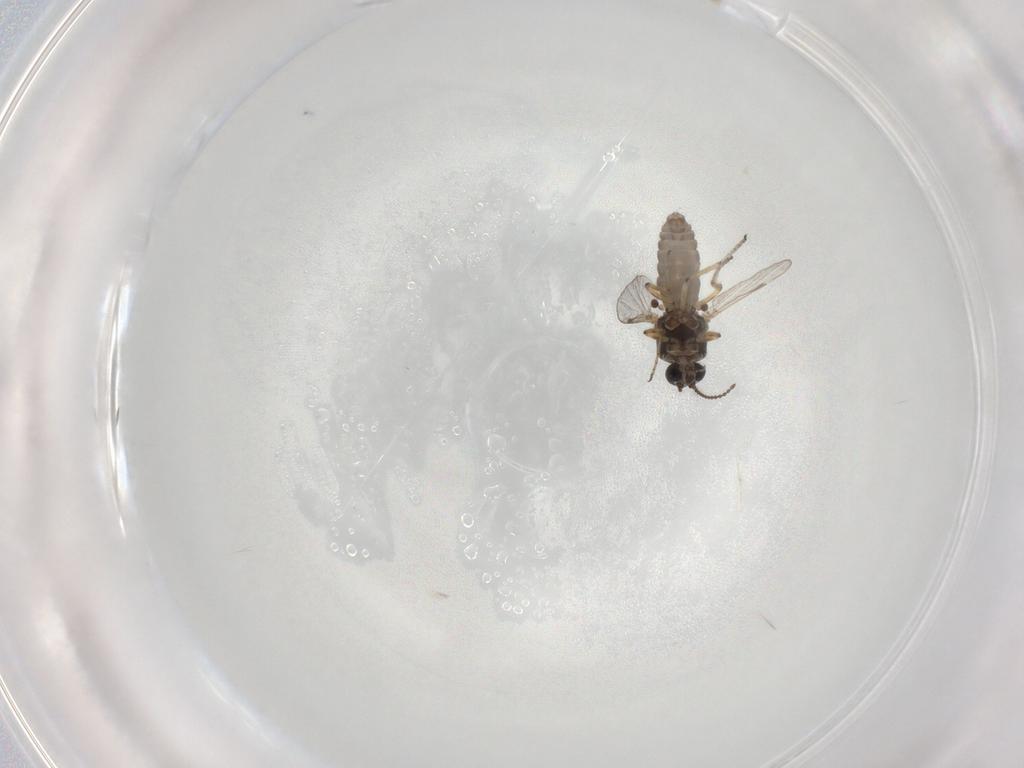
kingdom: Animalia
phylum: Arthropoda
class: Insecta
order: Diptera
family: Ceratopogonidae
